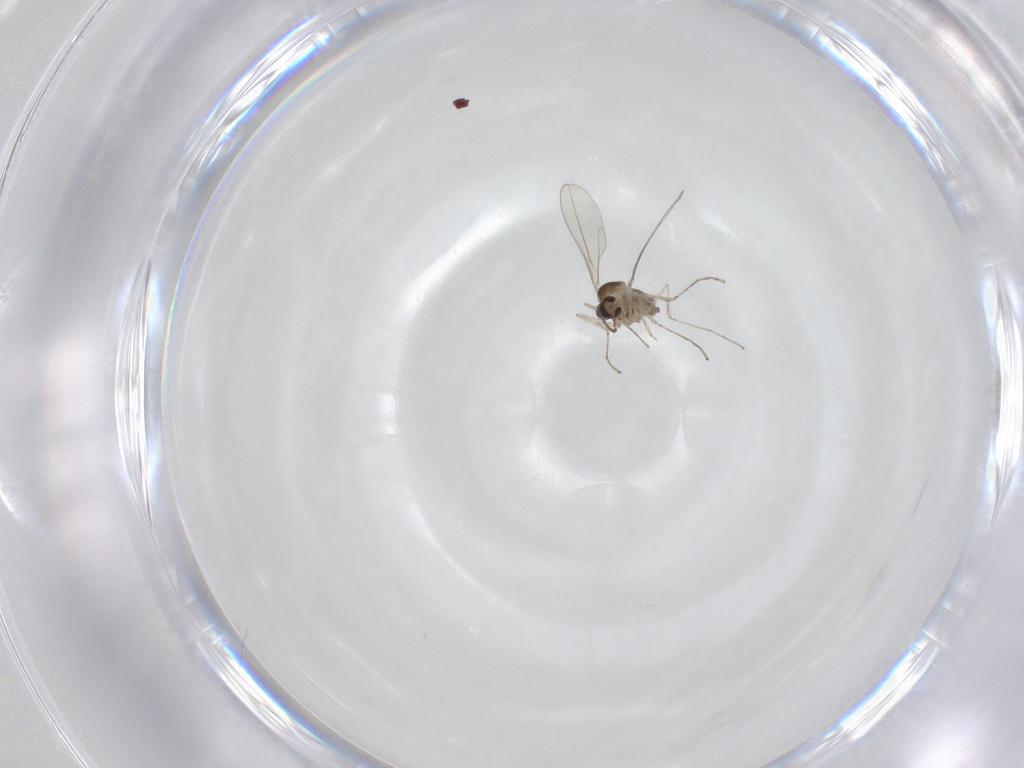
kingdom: Animalia
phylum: Arthropoda
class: Insecta
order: Diptera
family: Cecidomyiidae
